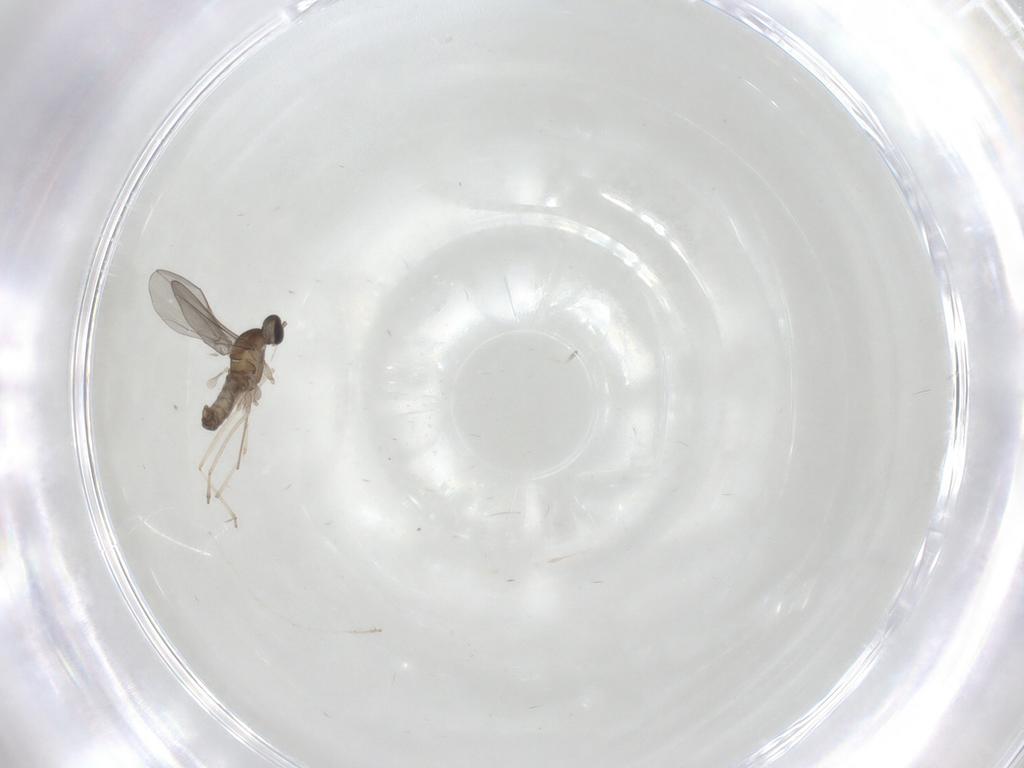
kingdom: Animalia
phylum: Arthropoda
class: Insecta
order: Diptera
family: Cecidomyiidae
